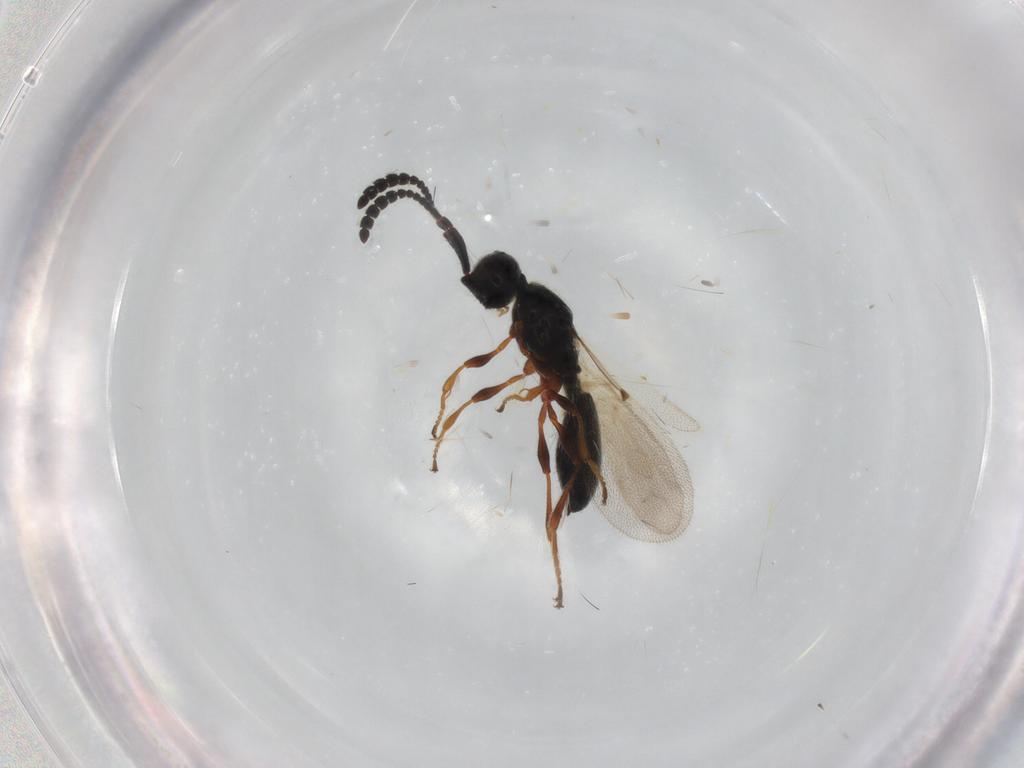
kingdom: Animalia
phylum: Arthropoda
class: Insecta
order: Hymenoptera
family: Diapriidae
